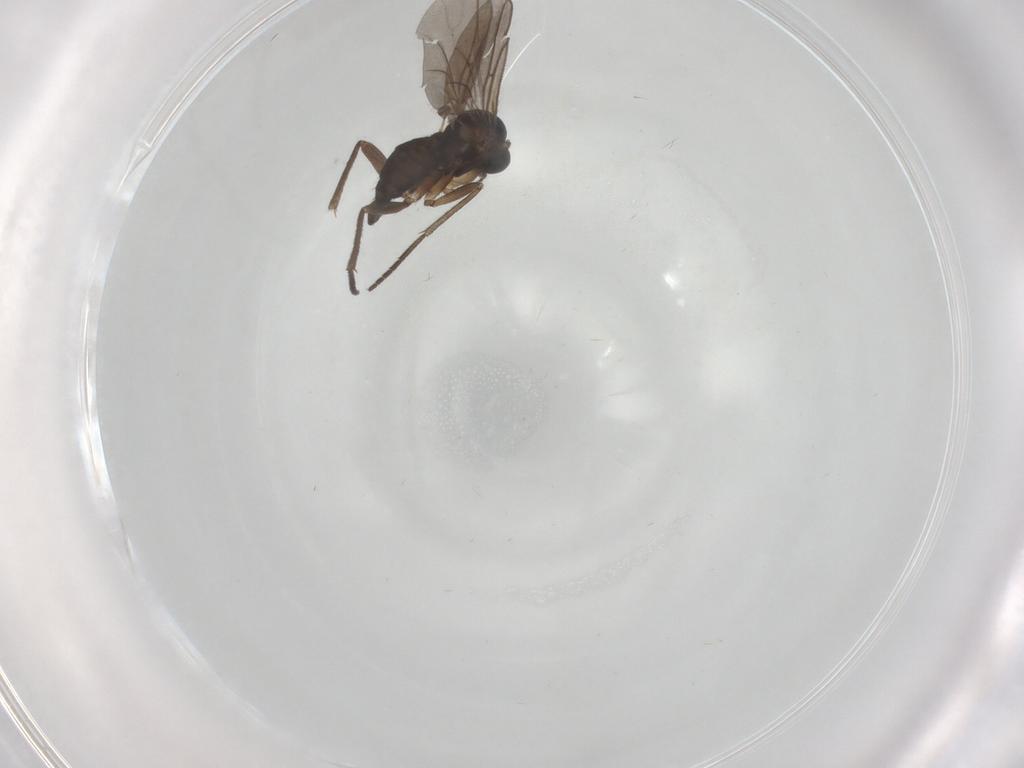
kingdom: Animalia
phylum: Arthropoda
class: Insecta
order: Diptera
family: Sciaridae
